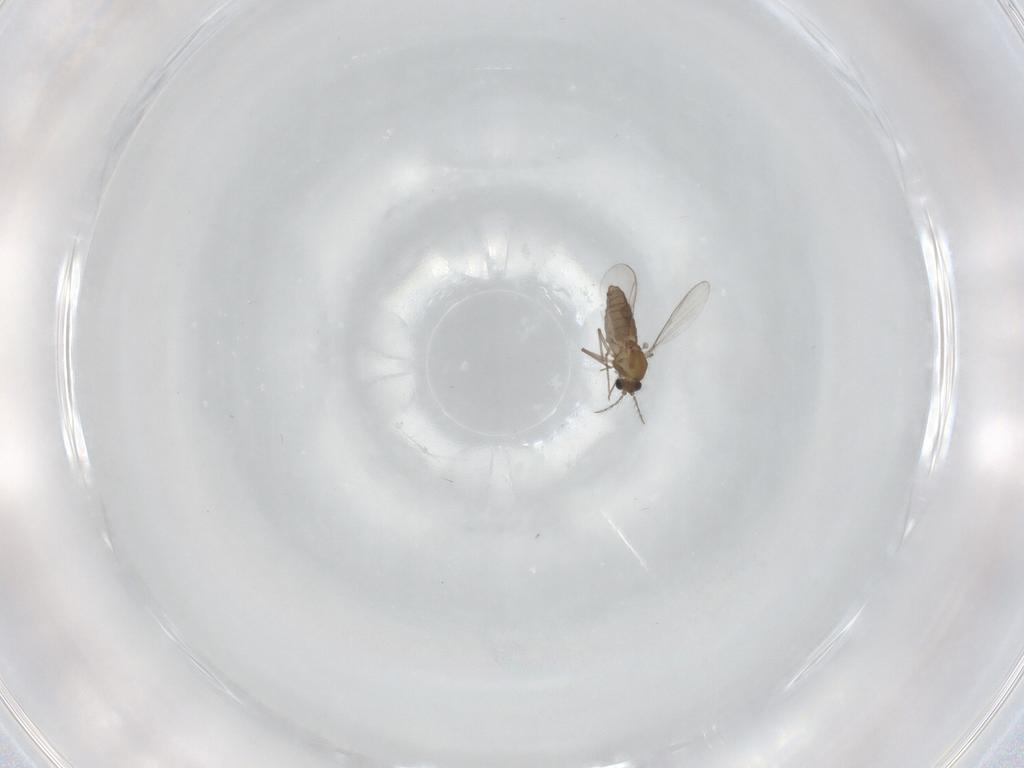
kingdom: Animalia
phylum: Arthropoda
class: Insecta
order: Diptera
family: Chironomidae
